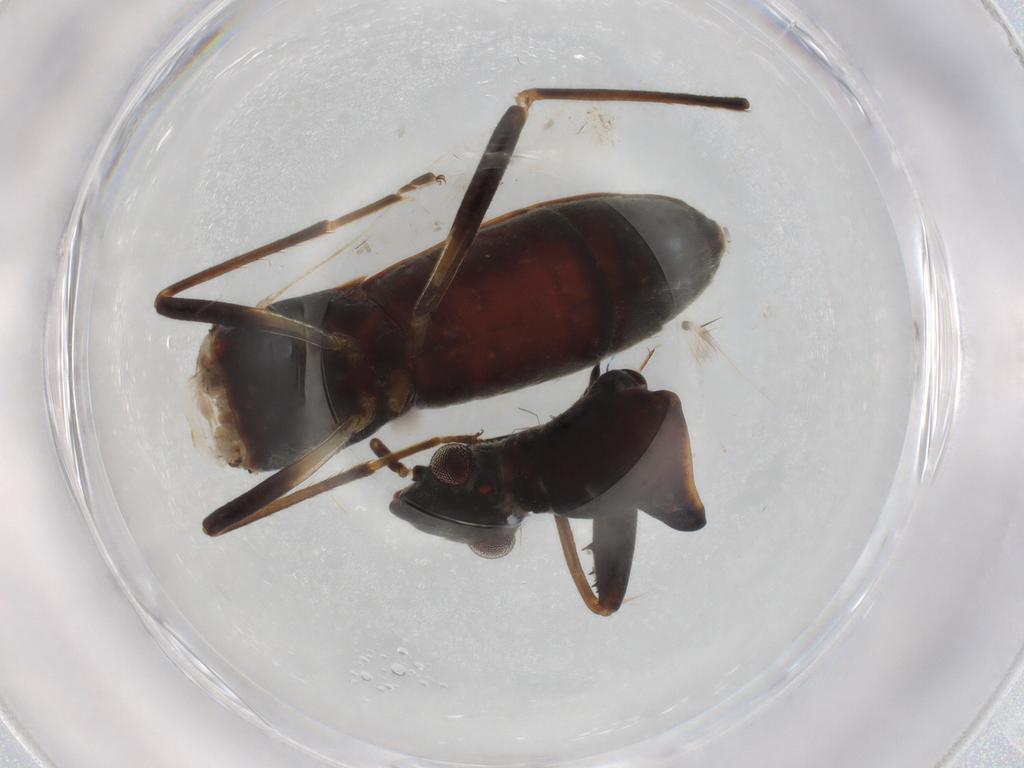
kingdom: Animalia
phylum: Arthropoda
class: Insecta
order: Hemiptera
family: Rhyparochromidae
